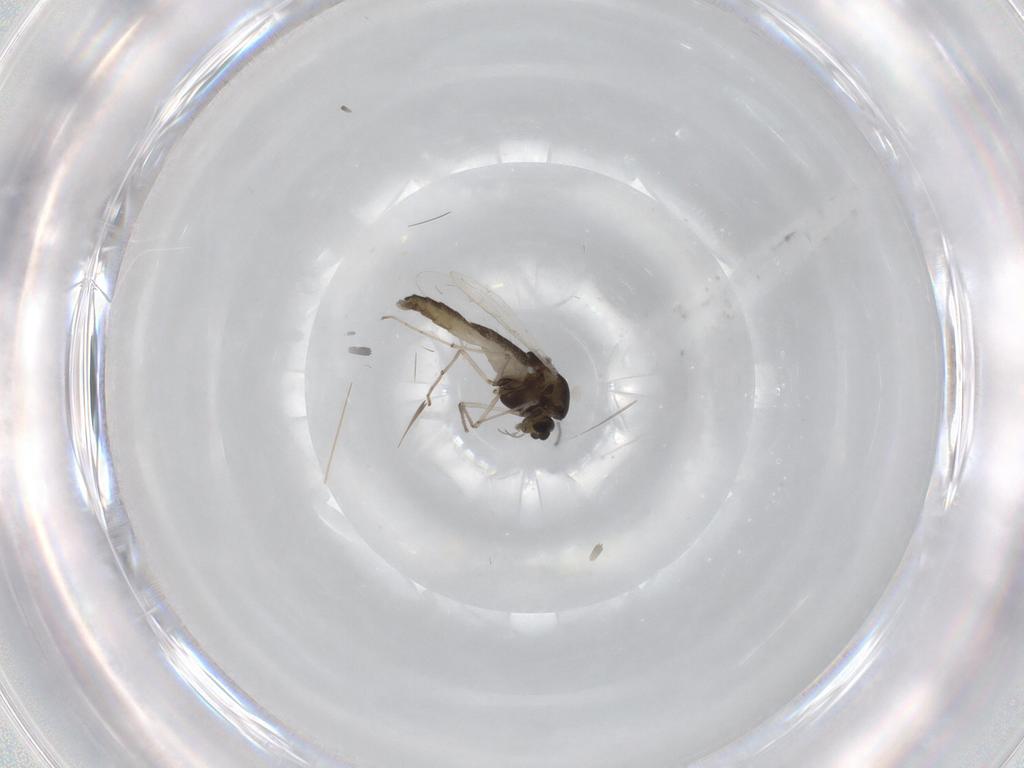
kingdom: Animalia
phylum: Arthropoda
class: Insecta
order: Diptera
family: Chironomidae
